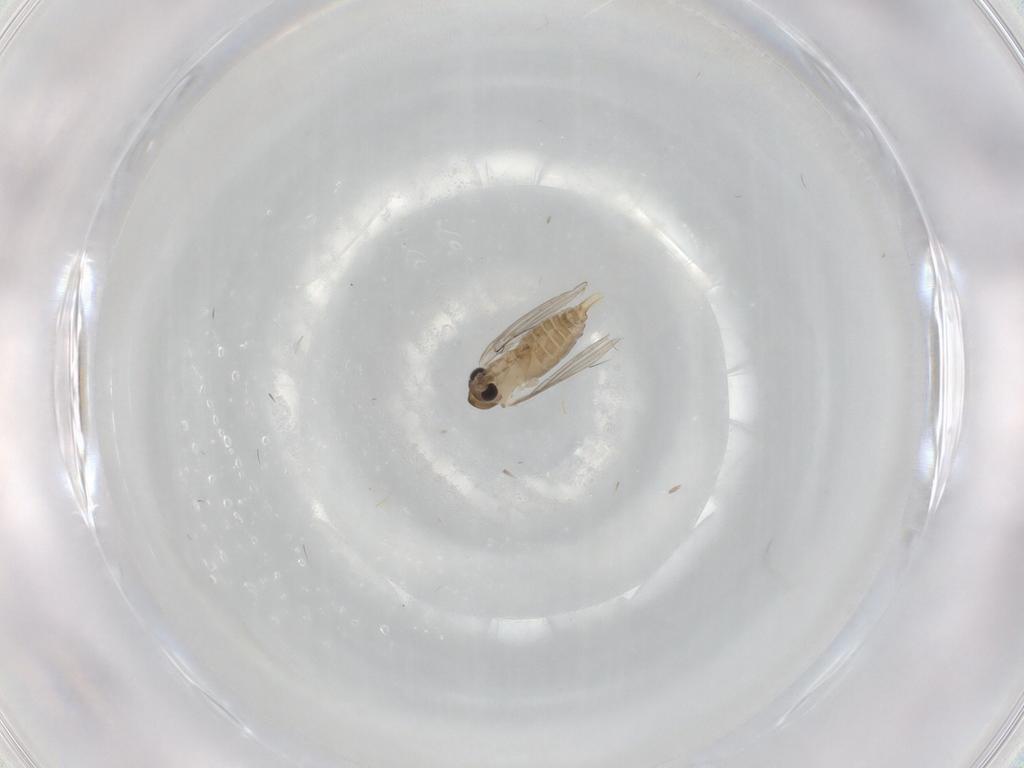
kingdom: Animalia
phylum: Arthropoda
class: Insecta
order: Diptera
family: Psychodidae
